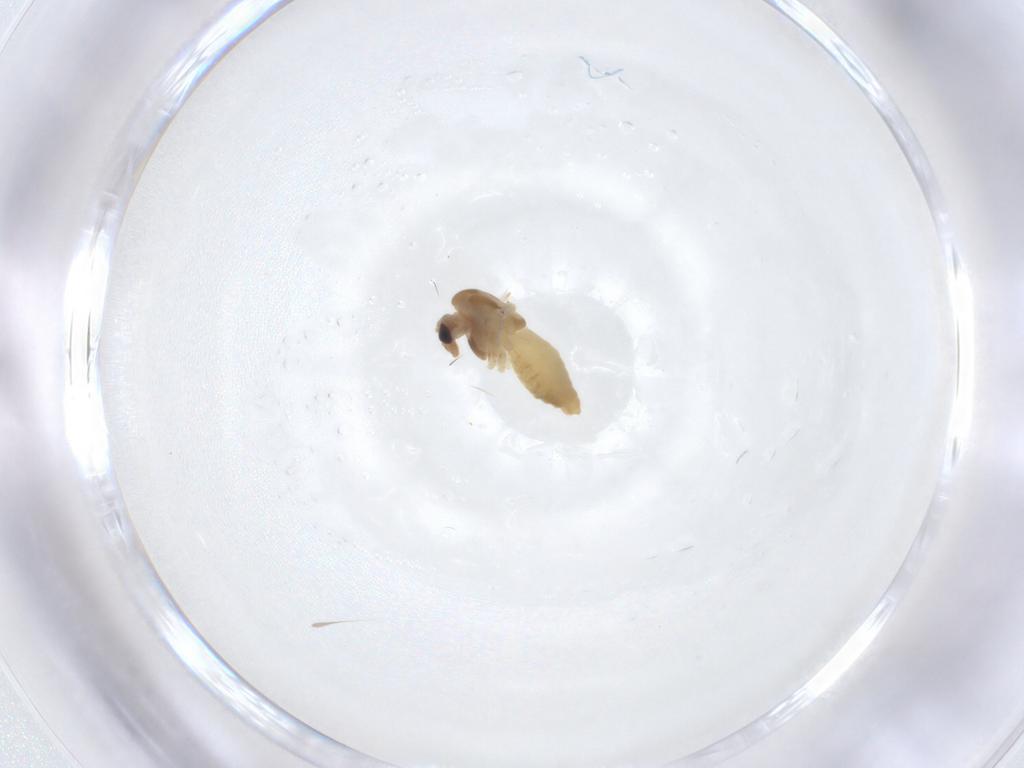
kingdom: Animalia
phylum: Arthropoda
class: Insecta
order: Diptera
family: Chironomidae
